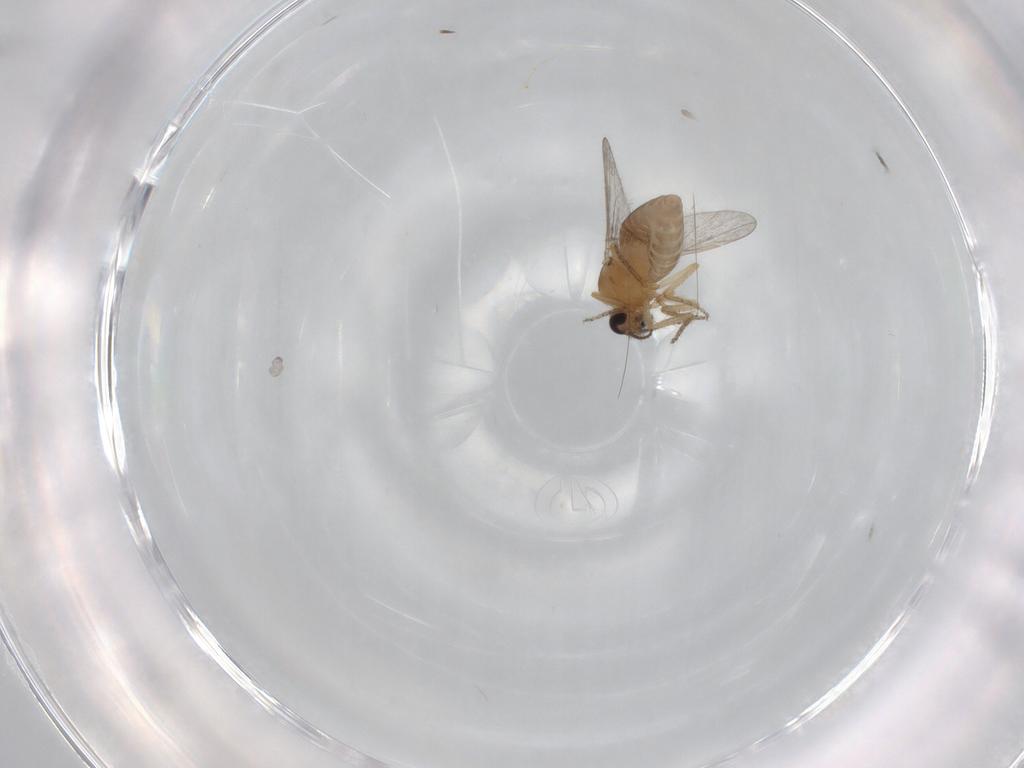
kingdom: Animalia
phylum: Arthropoda
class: Insecta
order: Diptera
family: Ceratopogonidae
